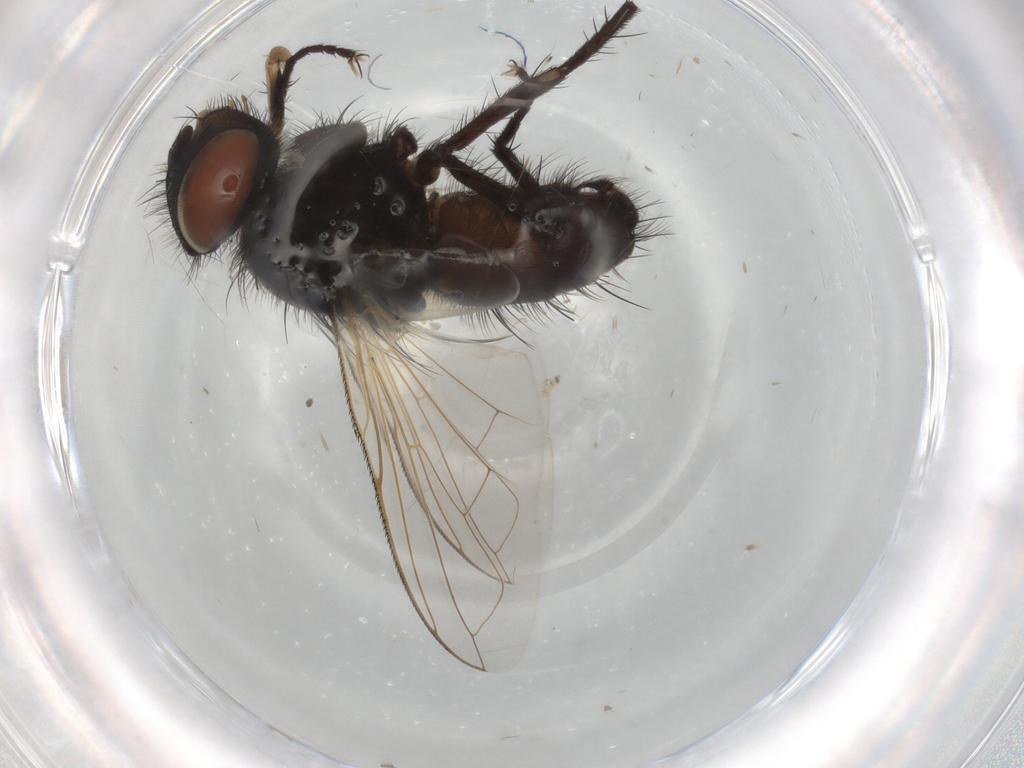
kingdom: Animalia
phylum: Arthropoda
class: Insecta
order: Diptera
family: Tachinidae
